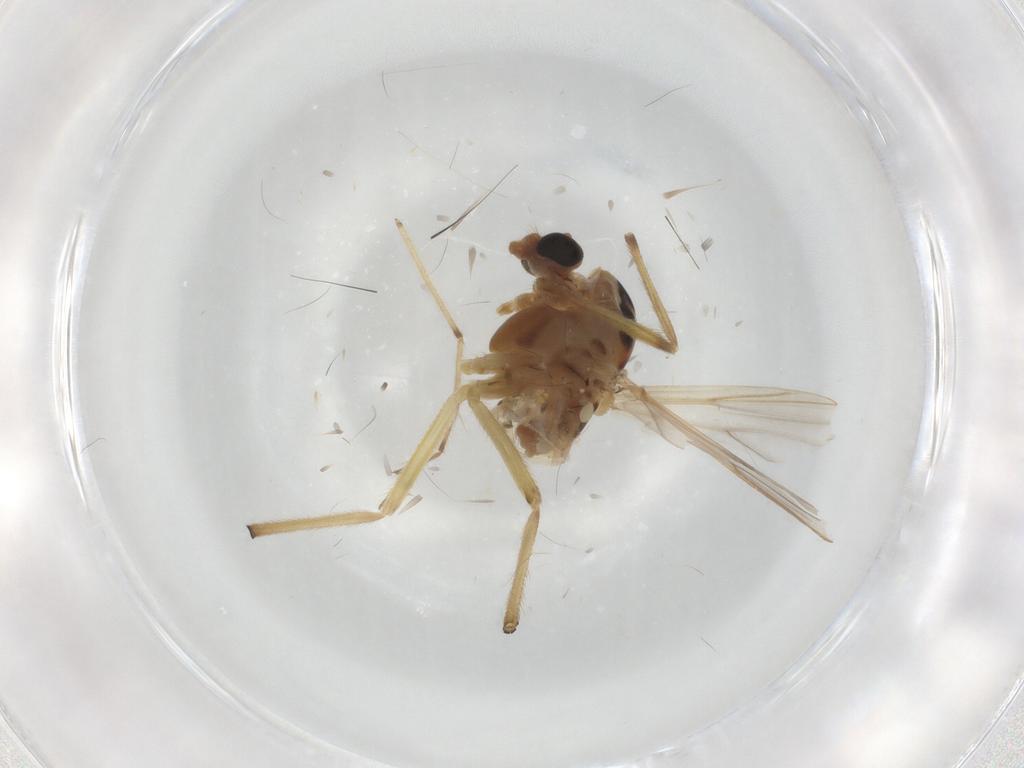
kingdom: Animalia
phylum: Arthropoda
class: Insecta
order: Diptera
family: Chironomidae
